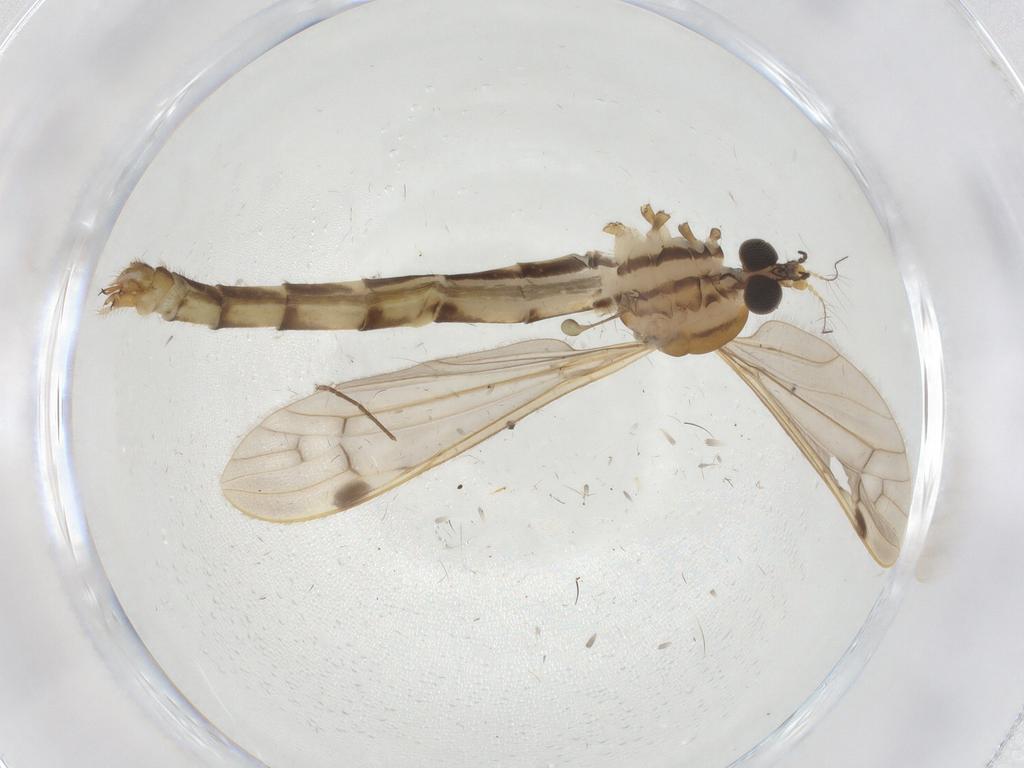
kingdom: Animalia
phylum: Arthropoda
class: Insecta
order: Diptera
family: Psychodidae
